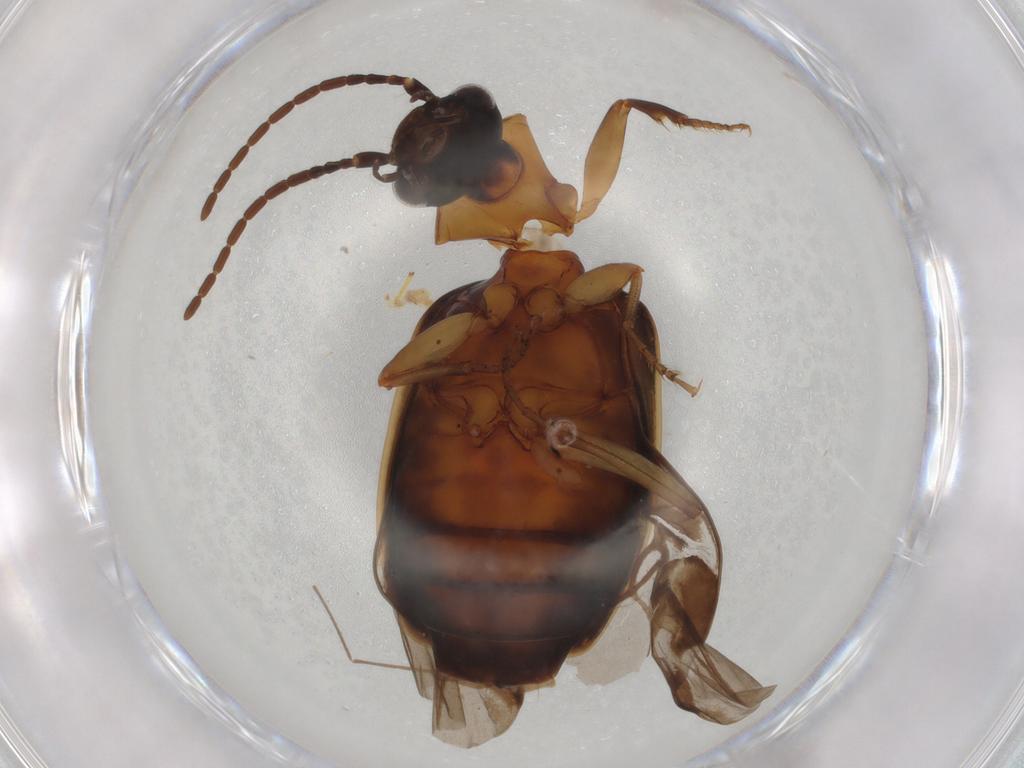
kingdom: Animalia
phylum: Arthropoda
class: Insecta
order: Coleoptera
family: Carabidae
